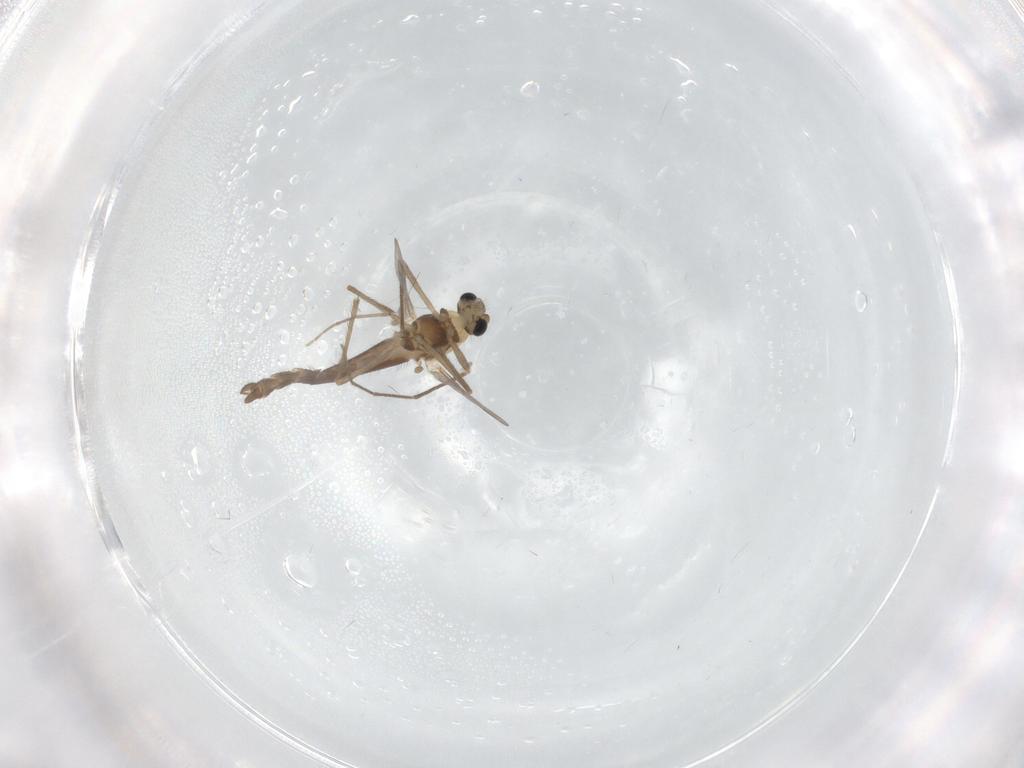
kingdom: Animalia
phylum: Arthropoda
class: Insecta
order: Diptera
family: Chironomidae
